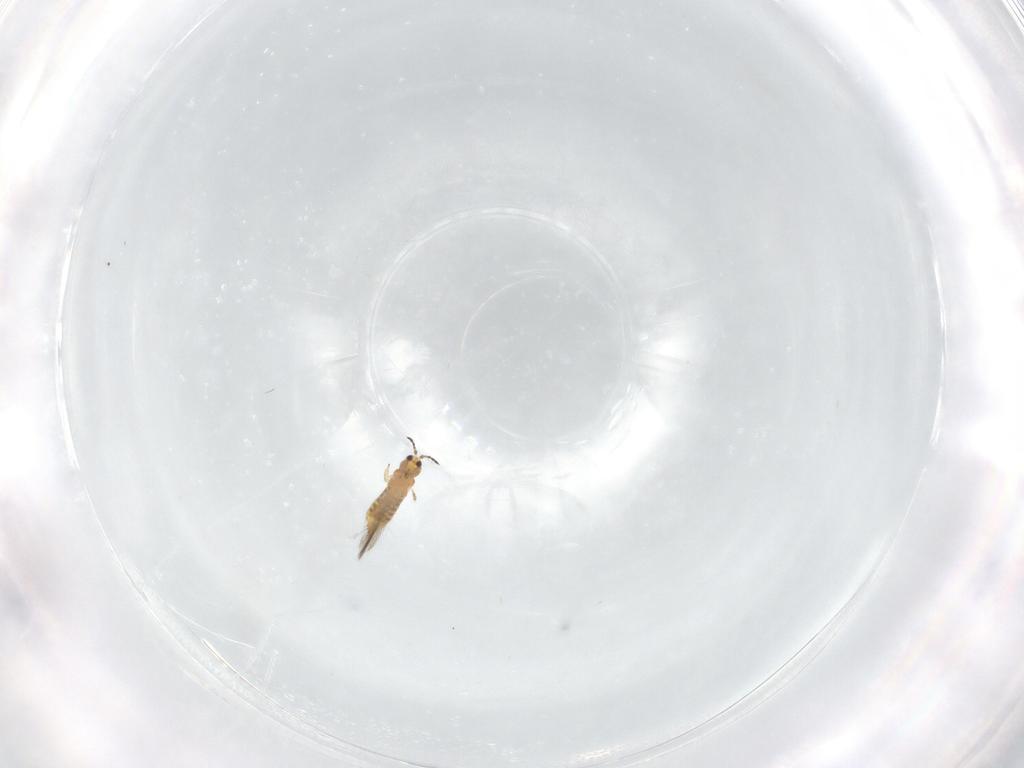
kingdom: Animalia
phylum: Arthropoda
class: Insecta
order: Thysanoptera
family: Thripidae
